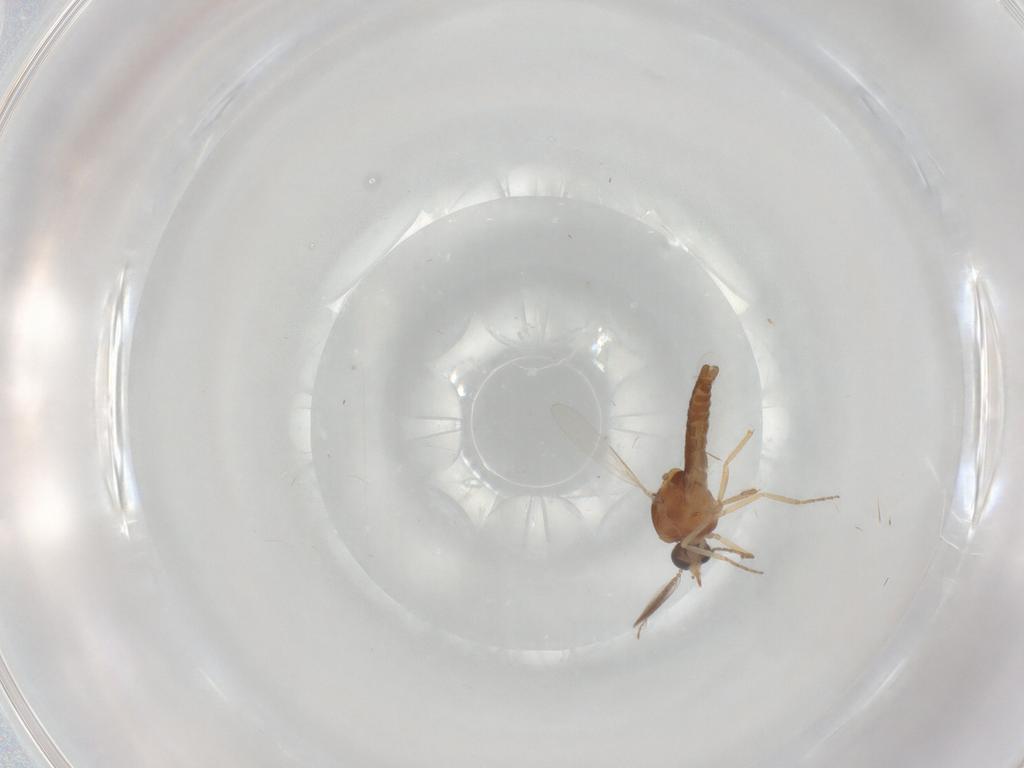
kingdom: Animalia
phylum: Arthropoda
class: Insecta
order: Diptera
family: Ceratopogonidae
